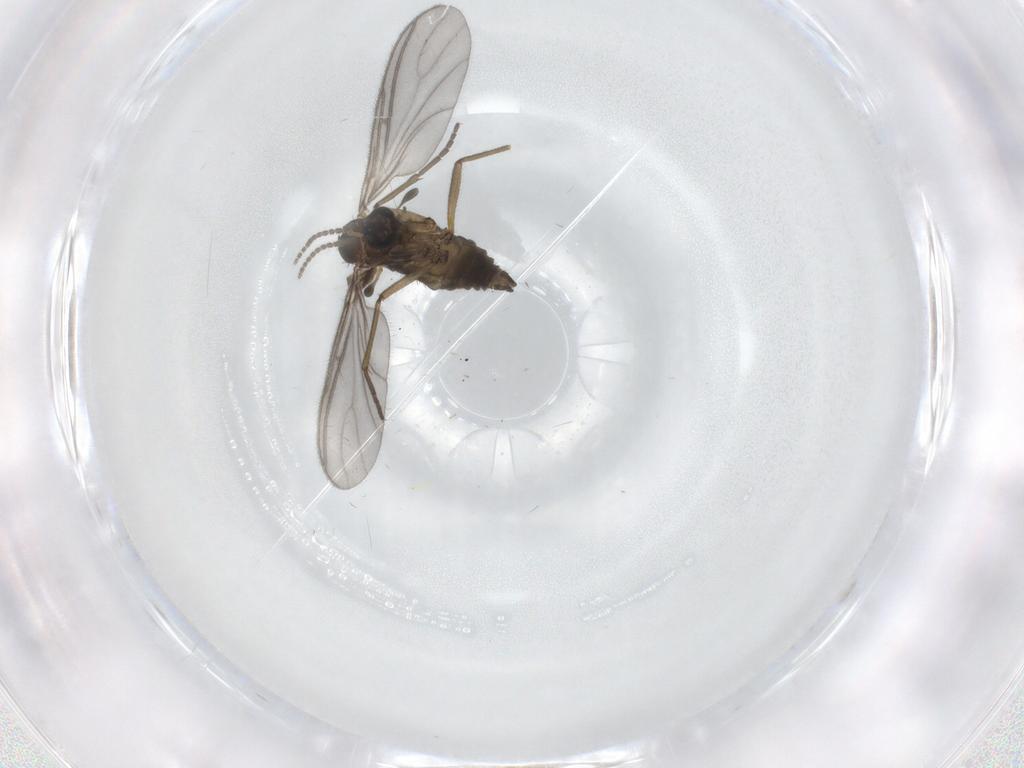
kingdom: Animalia
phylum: Arthropoda
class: Insecta
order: Diptera
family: Sciaridae
